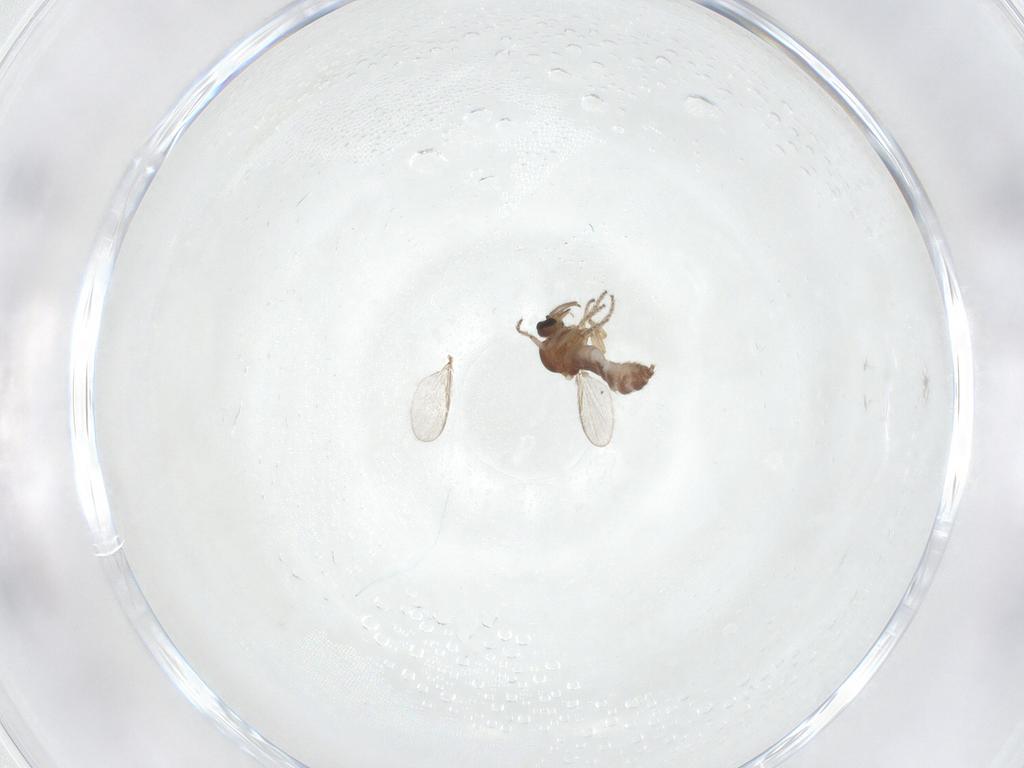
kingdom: Animalia
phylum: Arthropoda
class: Insecta
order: Diptera
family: Ceratopogonidae
